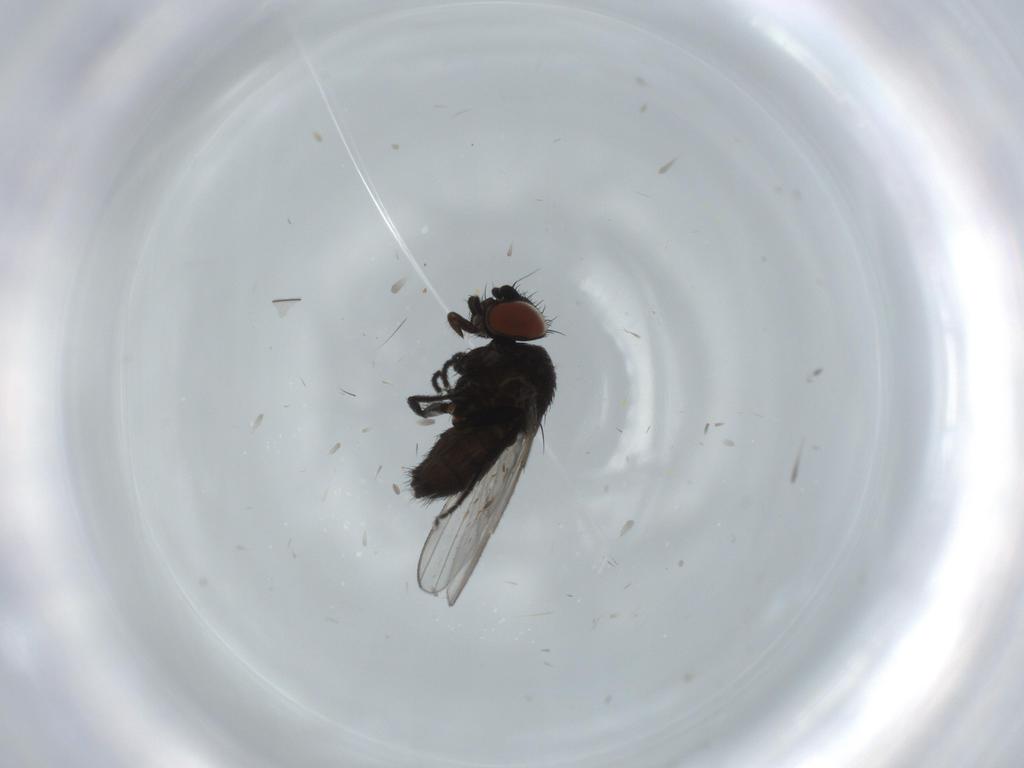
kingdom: Animalia
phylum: Arthropoda
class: Insecta
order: Diptera
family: Milichiidae
